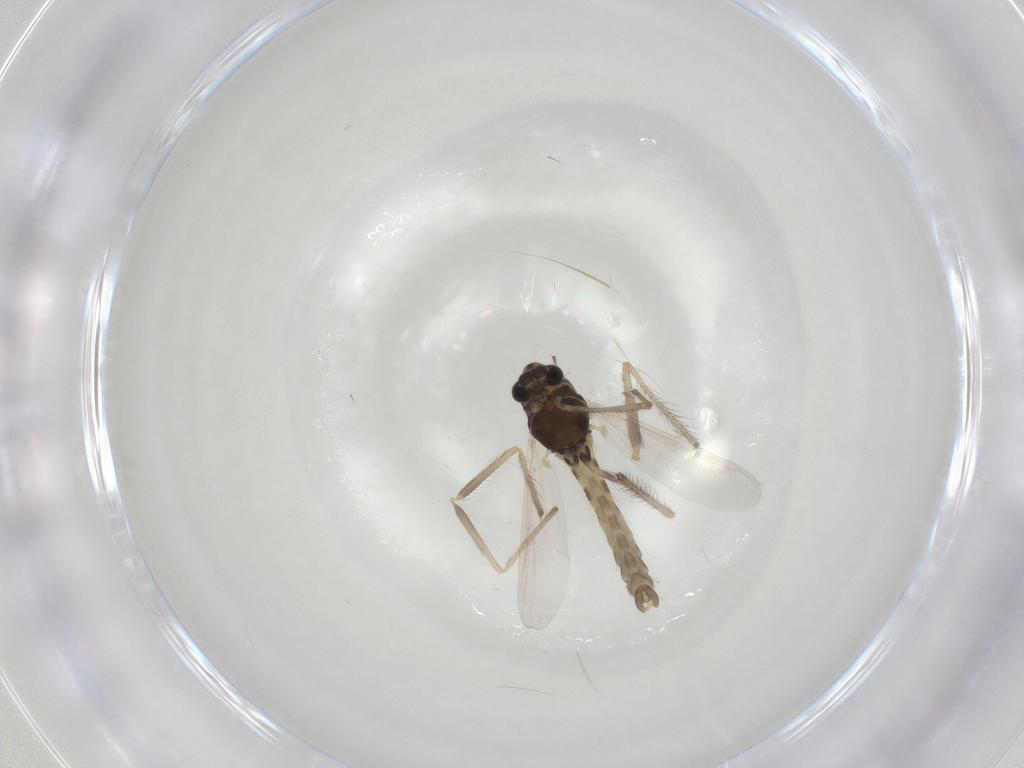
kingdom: Animalia
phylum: Arthropoda
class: Insecta
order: Diptera
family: Chironomidae
